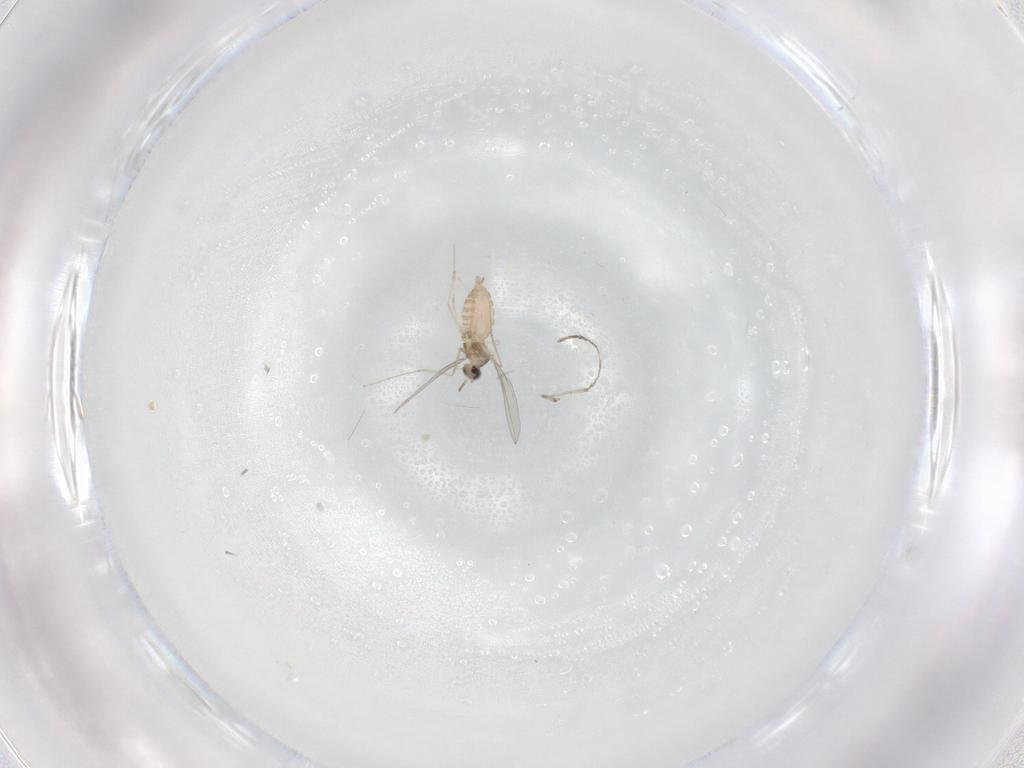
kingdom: Animalia
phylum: Arthropoda
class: Insecta
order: Diptera
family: Cecidomyiidae
